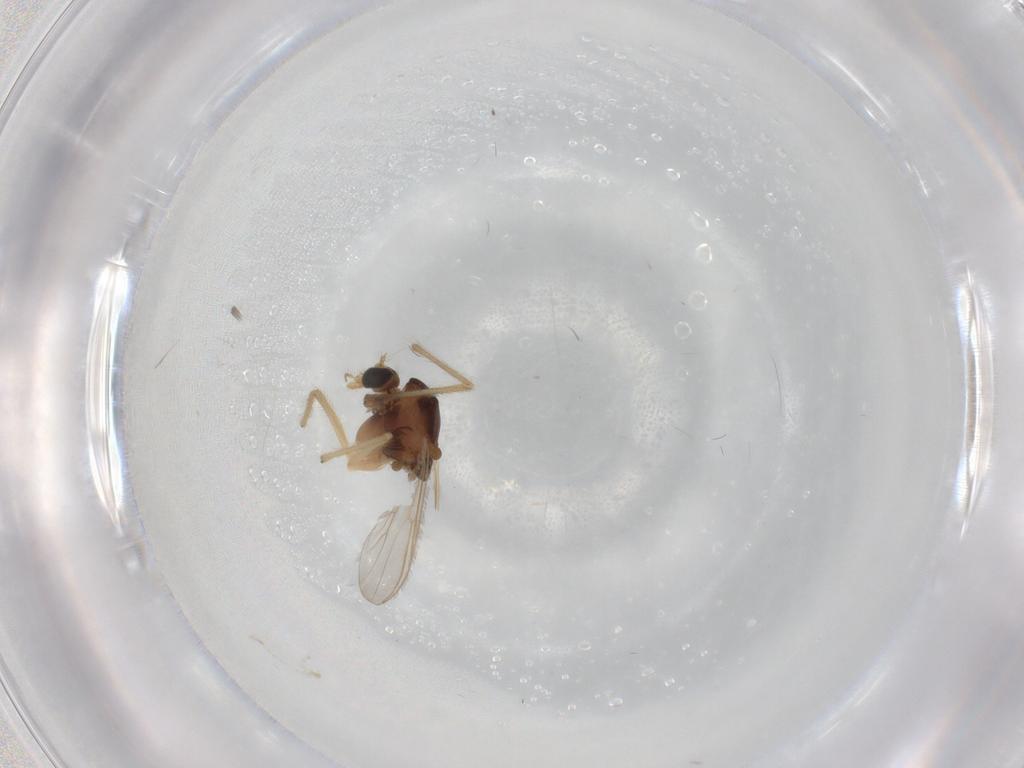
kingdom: Animalia
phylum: Arthropoda
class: Insecta
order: Diptera
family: Chironomidae
